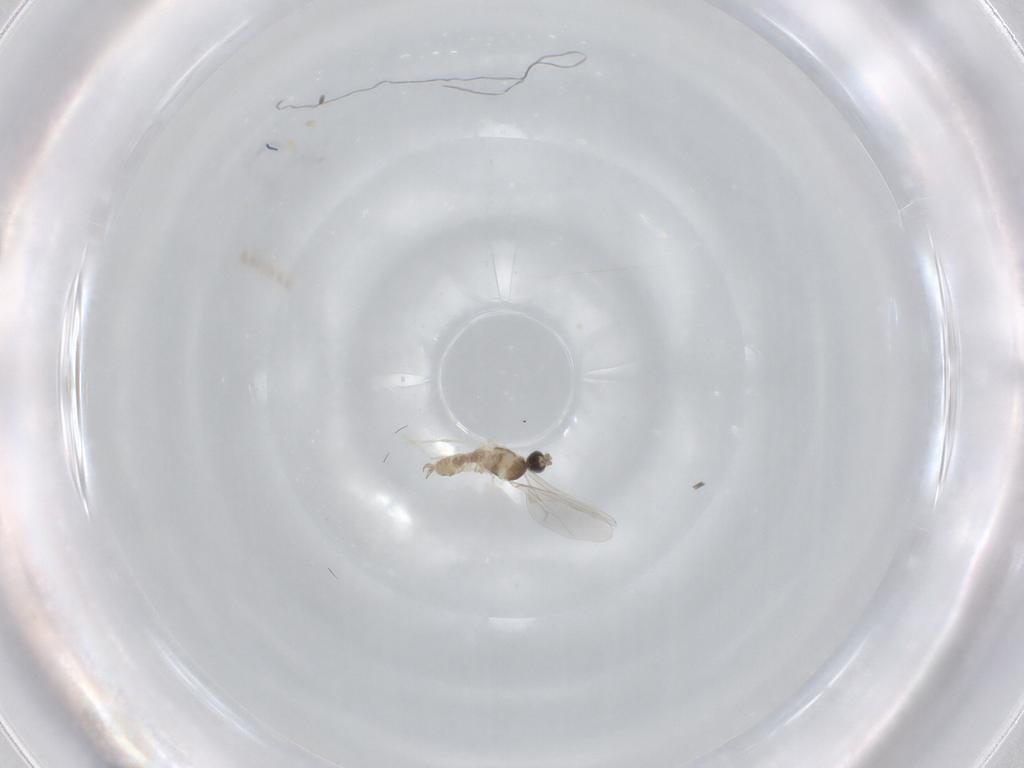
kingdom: Animalia
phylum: Arthropoda
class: Insecta
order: Diptera
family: Cecidomyiidae
